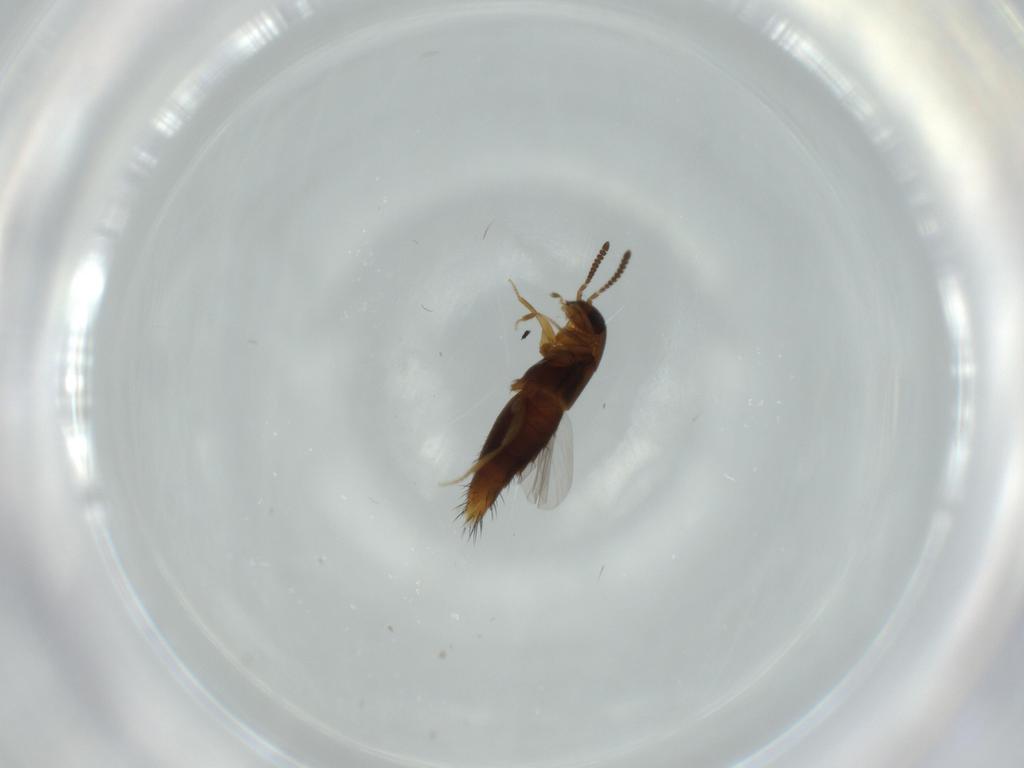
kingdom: Animalia
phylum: Arthropoda
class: Insecta
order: Coleoptera
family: Staphylinidae
